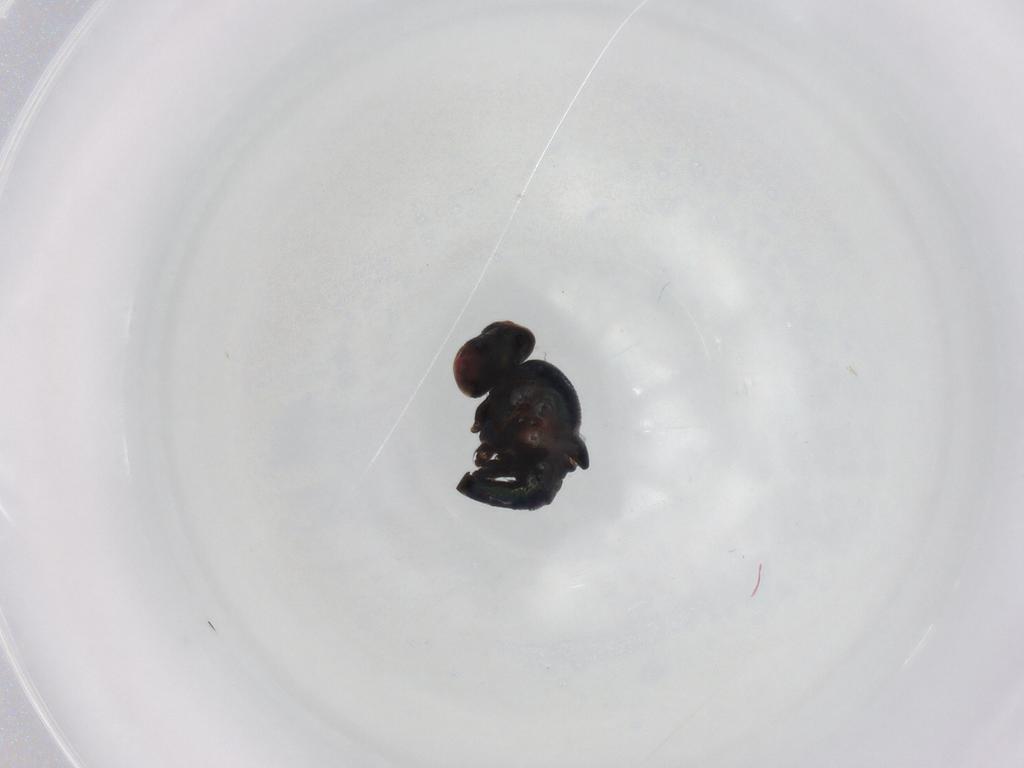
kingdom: Animalia
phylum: Arthropoda
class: Insecta
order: Diptera
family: Agromyzidae
